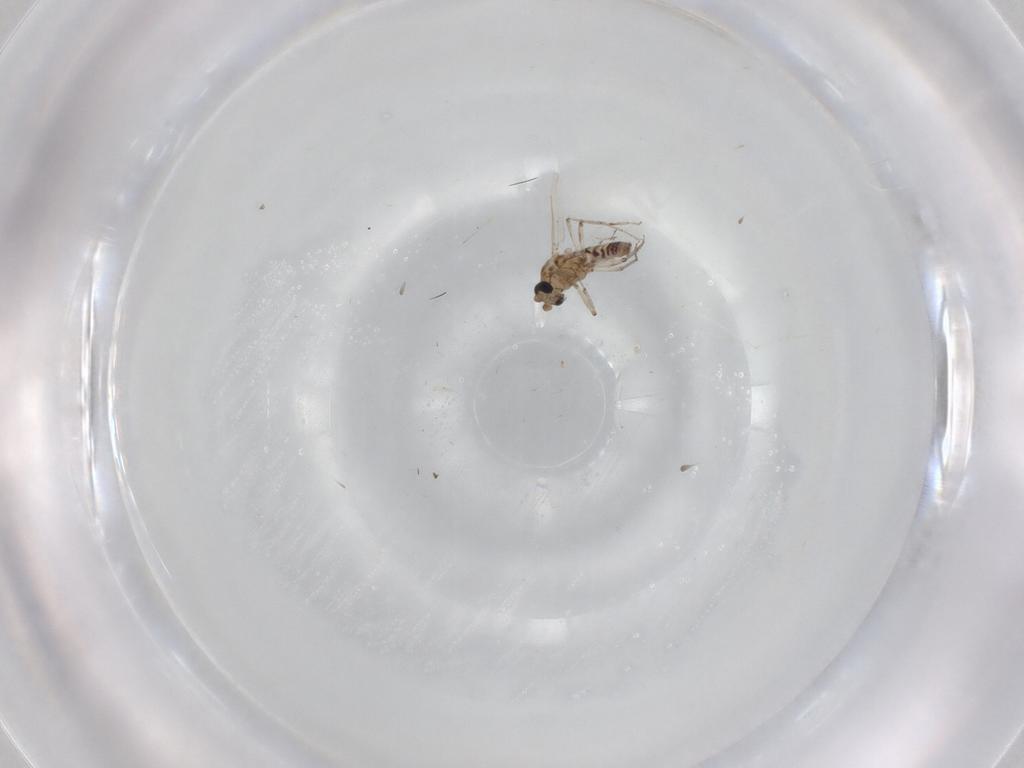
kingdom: Animalia
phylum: Arthropoda
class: Insecta
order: Diptera
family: Ceratopogonidae
